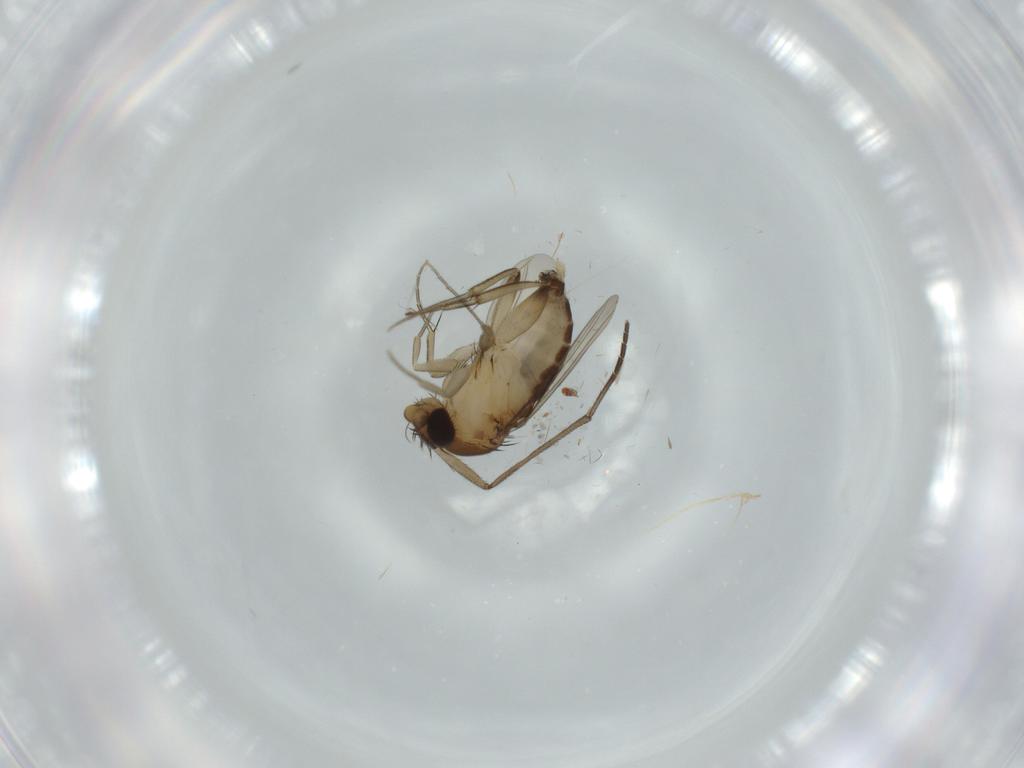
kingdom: Animalia
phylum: Arthropoda
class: Insecta
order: Diptera
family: Phoridae
